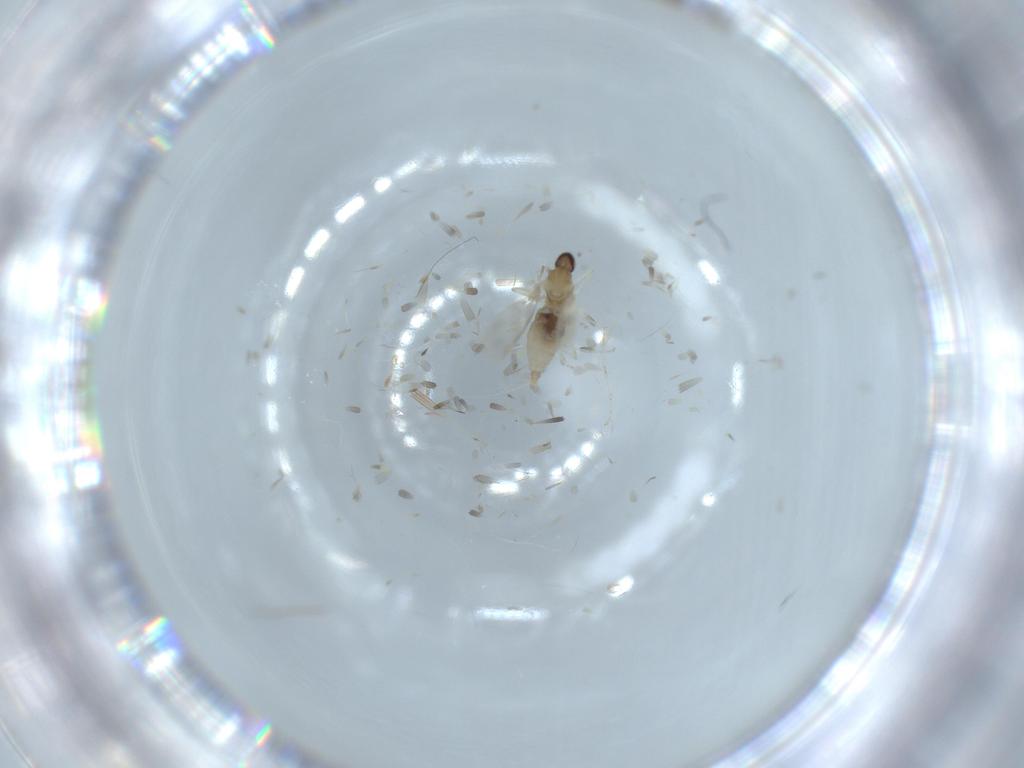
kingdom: Animalia
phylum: Arthropoda
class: Insecta
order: Diptera
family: Cecidomyiidae
